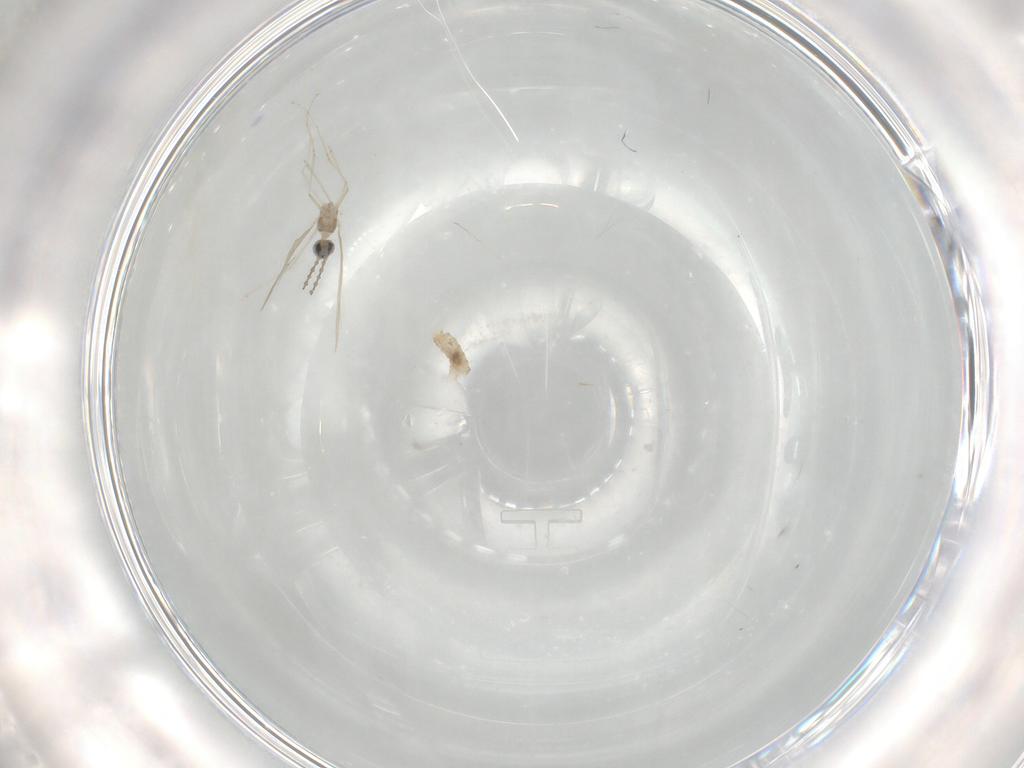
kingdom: Animalia
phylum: Arthropoda
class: Insecta
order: Diptera
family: Cecidomyiidae
